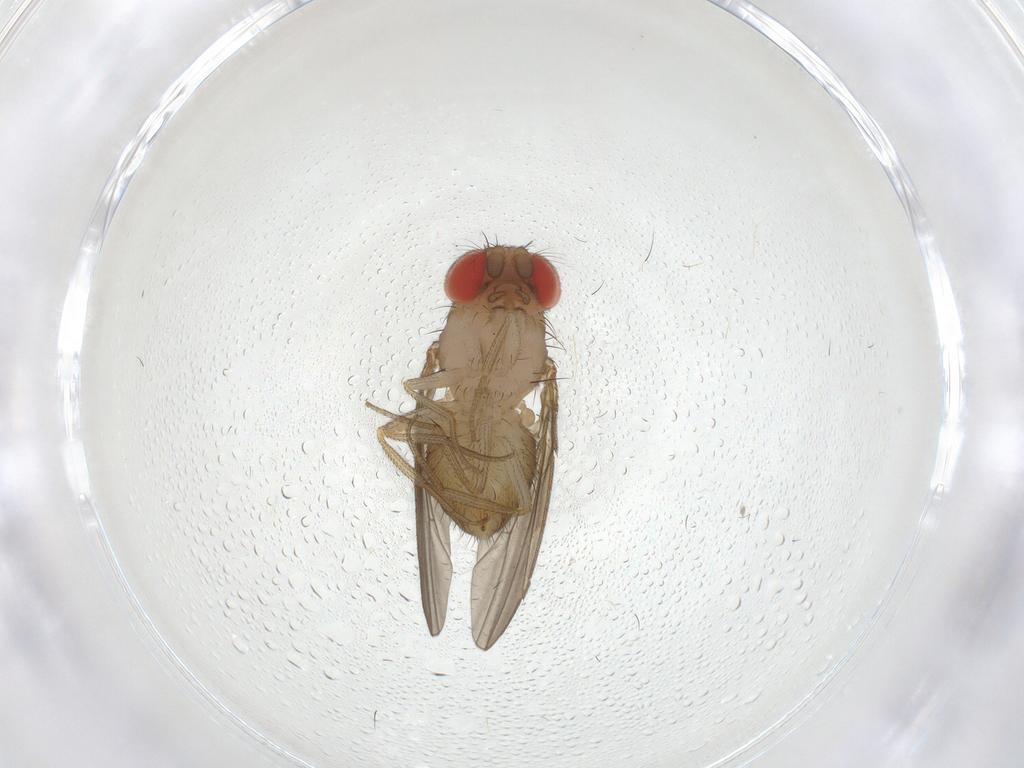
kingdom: Animalia
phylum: Arthropoda
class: Insecta
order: Diptera
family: Drosophilidae
